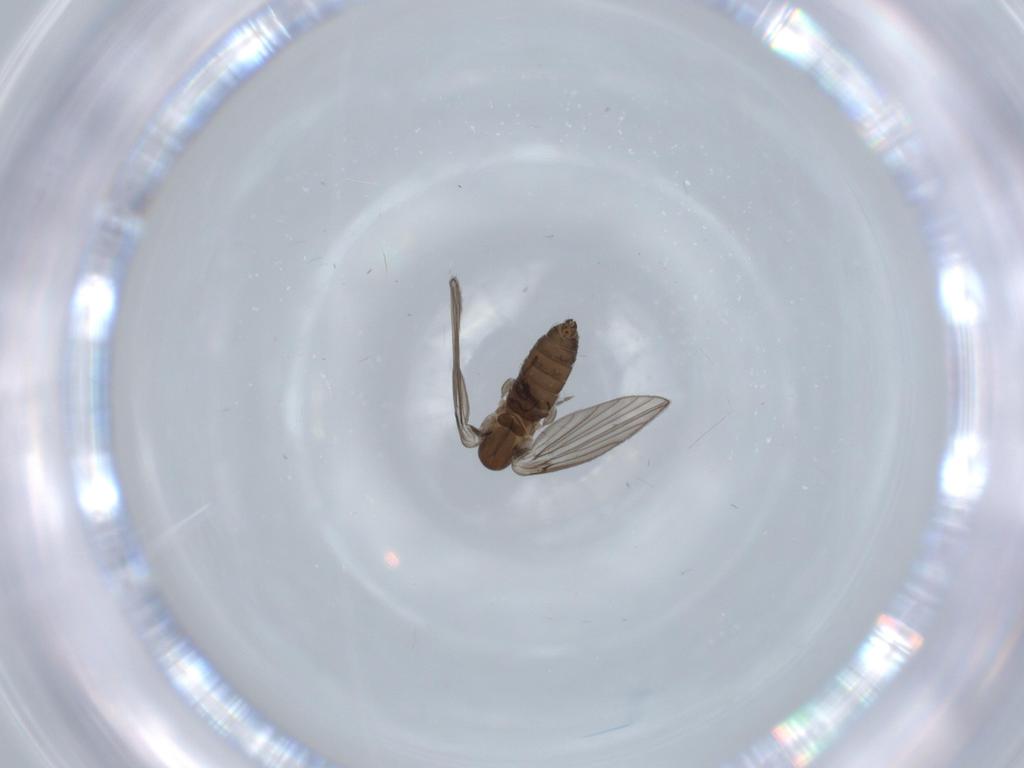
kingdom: Animalia
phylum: Arthropoda
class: Insecta
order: Diptera
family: Psychodidae
